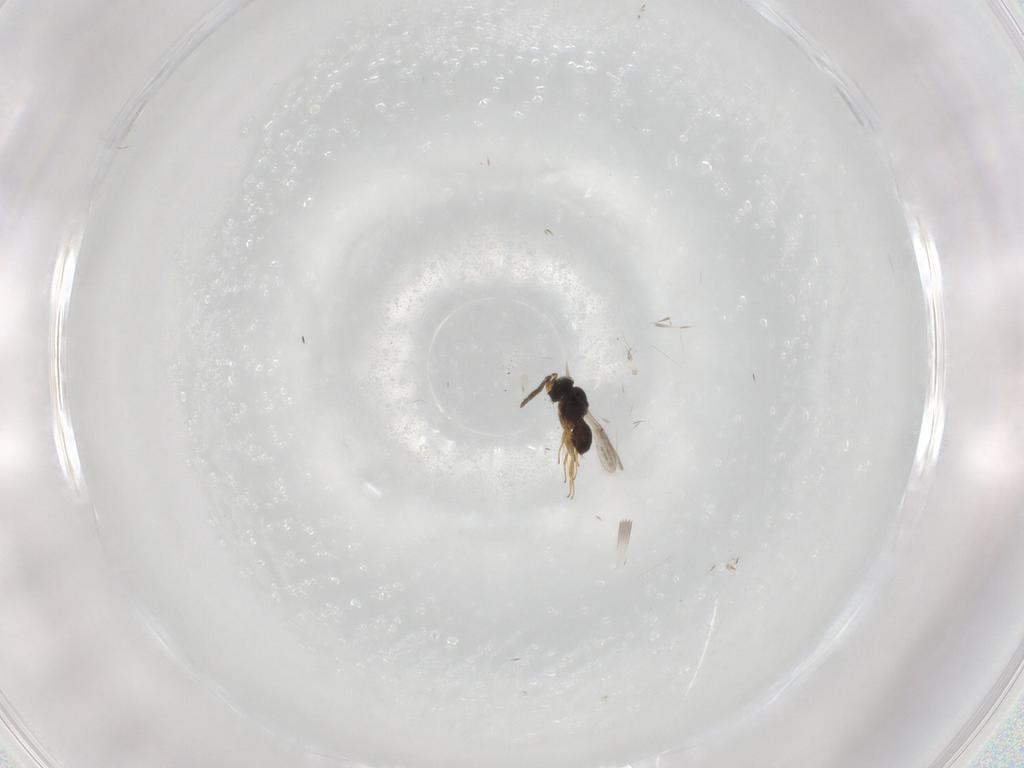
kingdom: Animalia
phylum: Arthropoda
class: Insecta
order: Hymenoptera
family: Scelionidae
